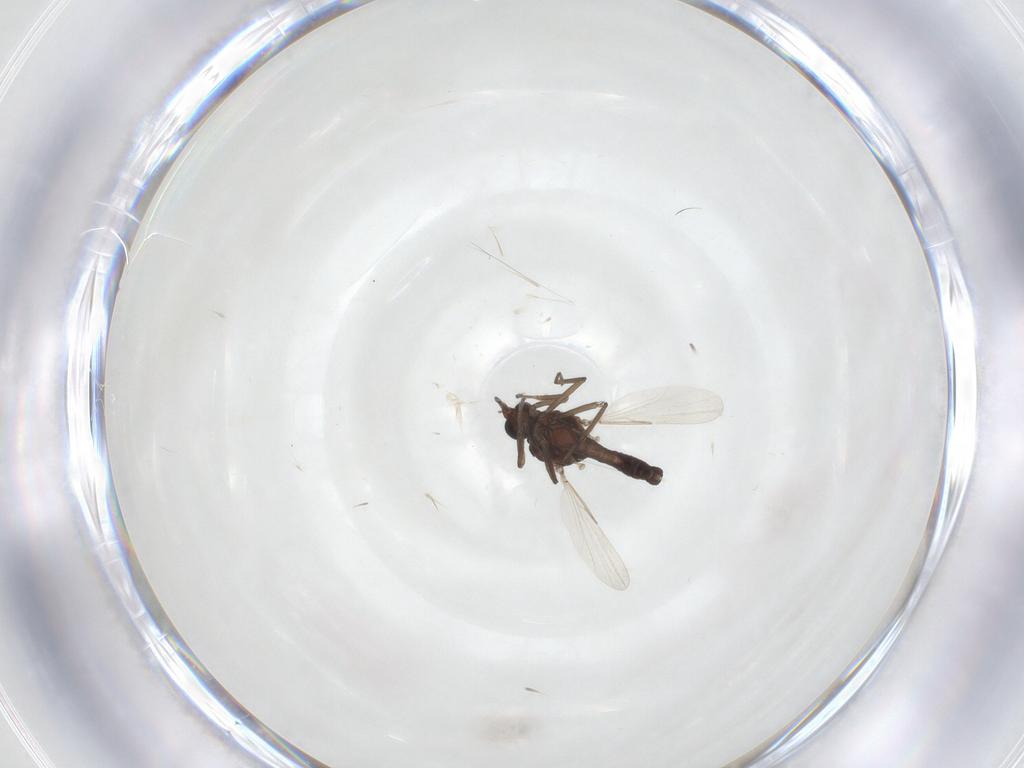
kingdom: Animalia
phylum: Arthropoda
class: Insecta
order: Diptera
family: Ceratopogonidae
